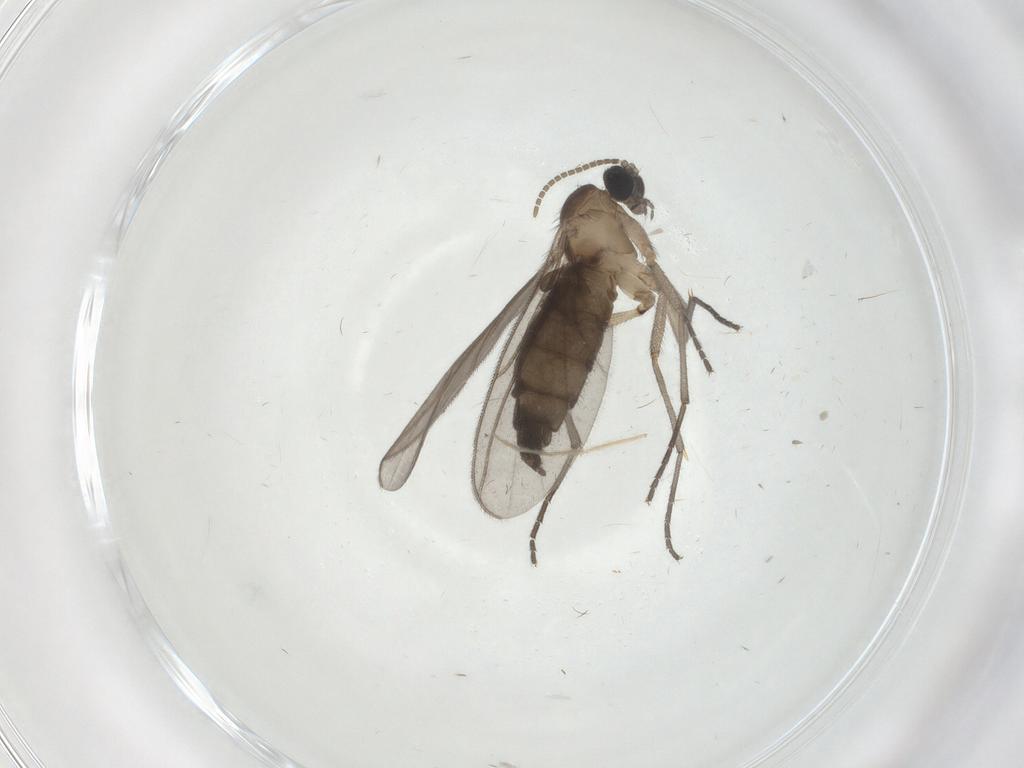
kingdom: Animalia
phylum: Arthropoda
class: Insecta
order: Diptera
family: Chironomidae
